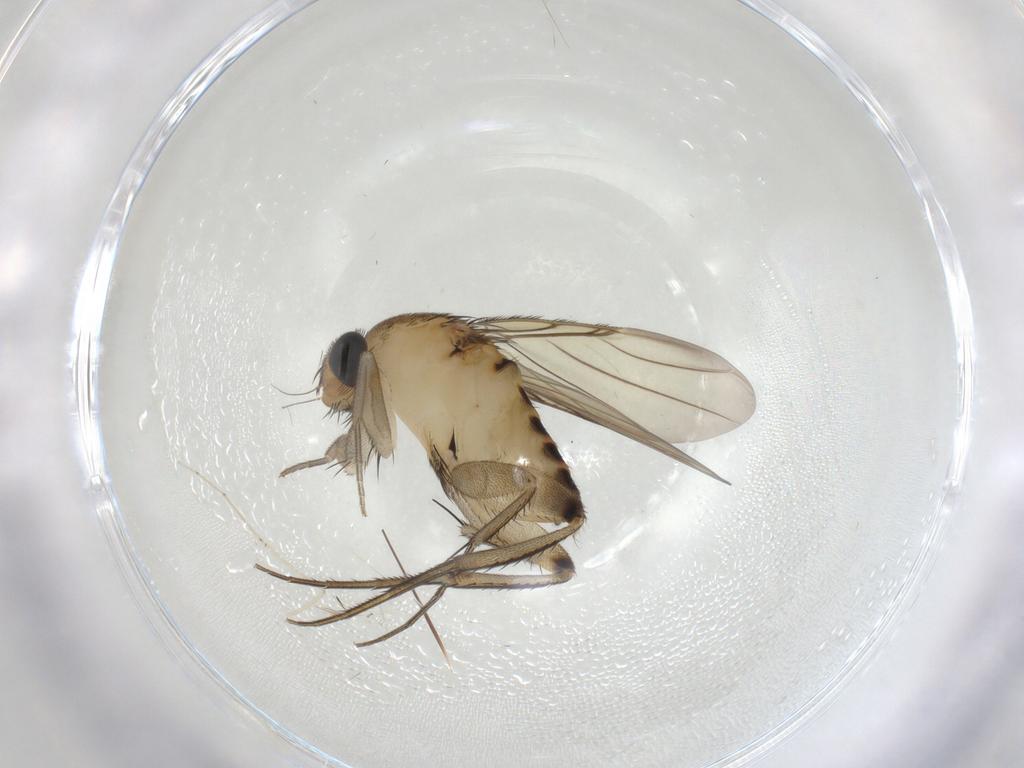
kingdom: Animalia
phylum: Arthropoda
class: Insecta
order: Diptera
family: Phoridae
